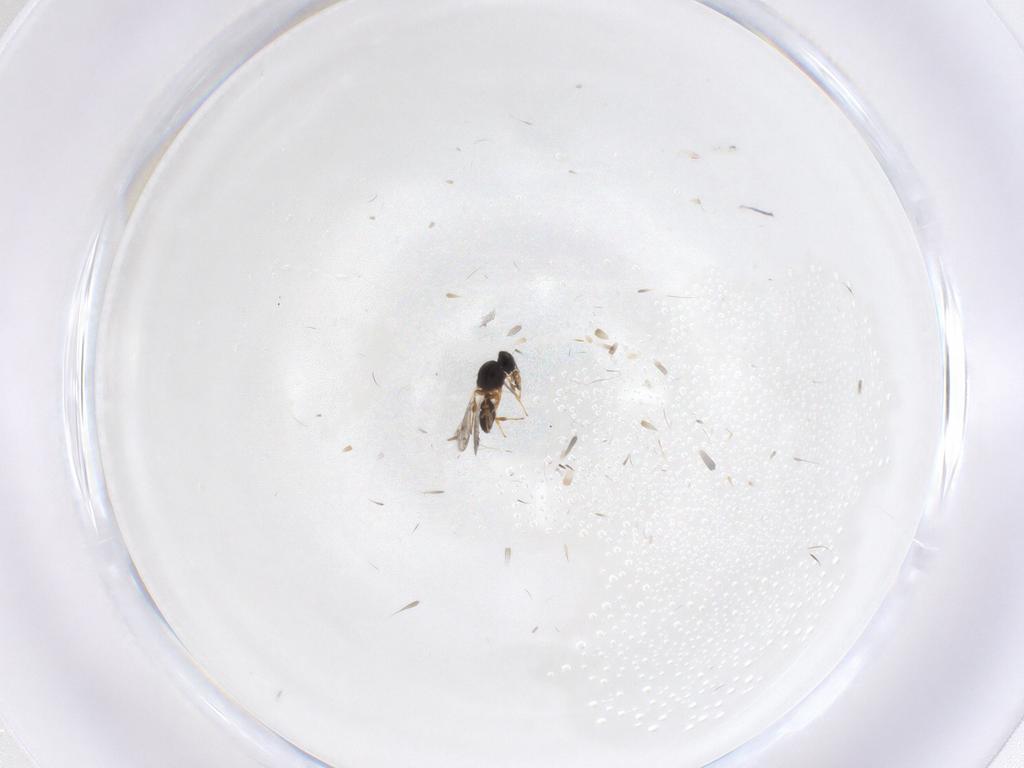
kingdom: Animalia
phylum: Arthropoda
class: Insecta
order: Hymenoptera
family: Platygastridae
